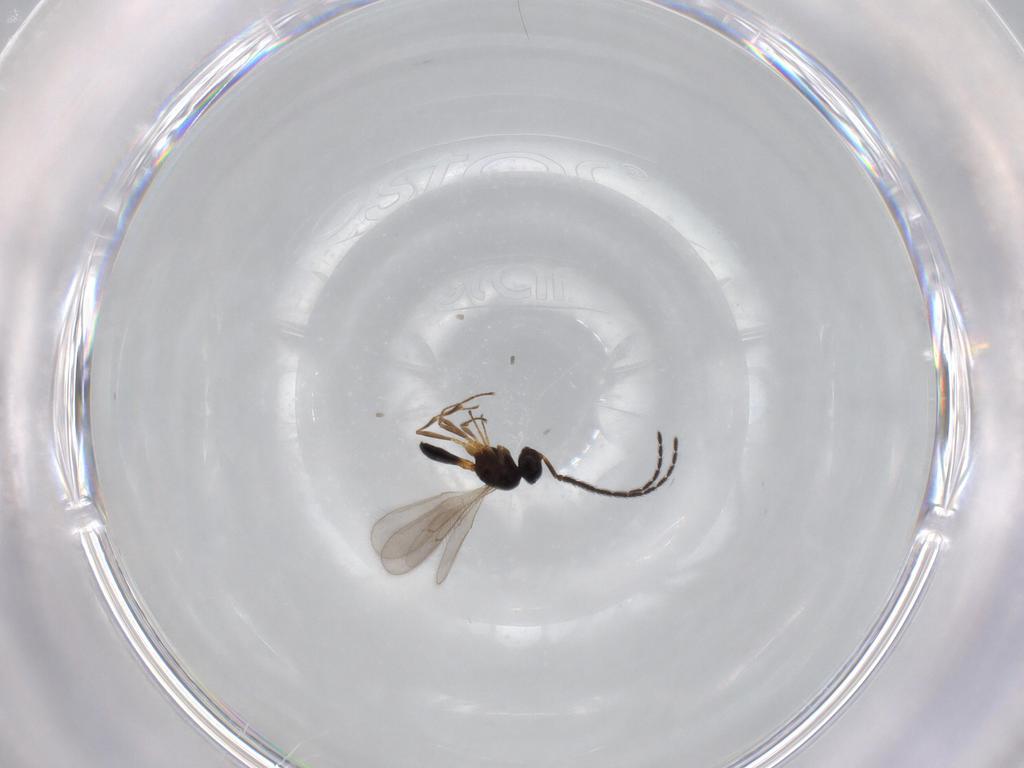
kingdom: Animalia
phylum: Arthropoda
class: Insecta
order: Hymenoptera
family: Scelionidae
